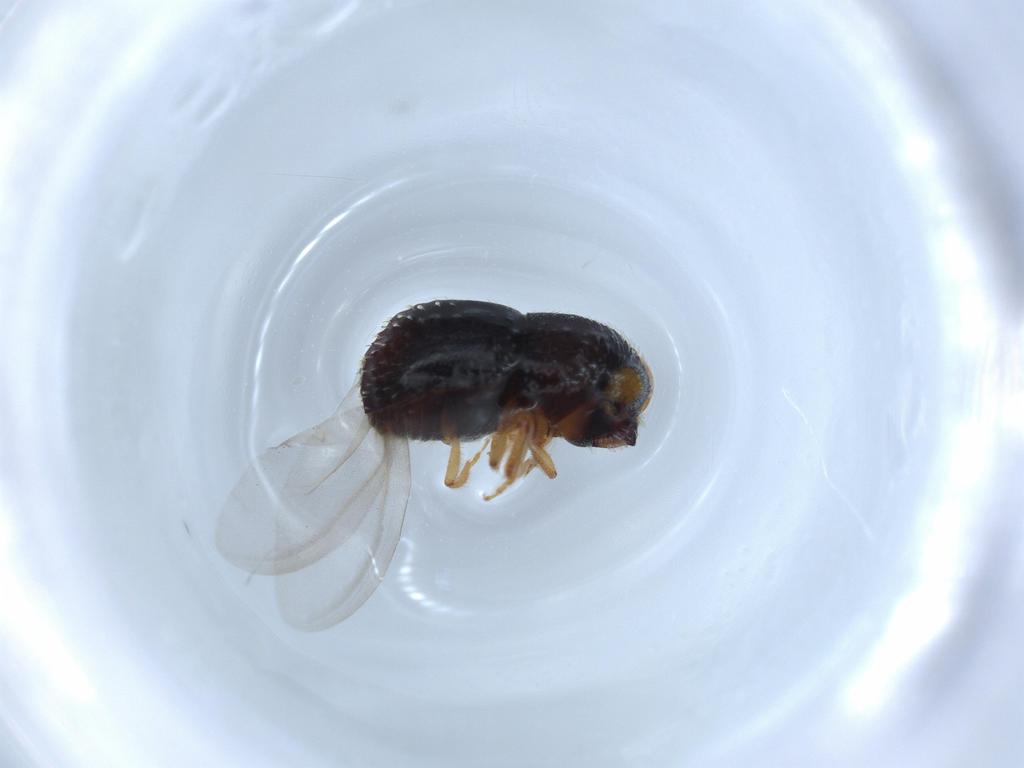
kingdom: Animalia
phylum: Arthropoda
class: Insecta
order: Coleoptera
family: Curculionidae
